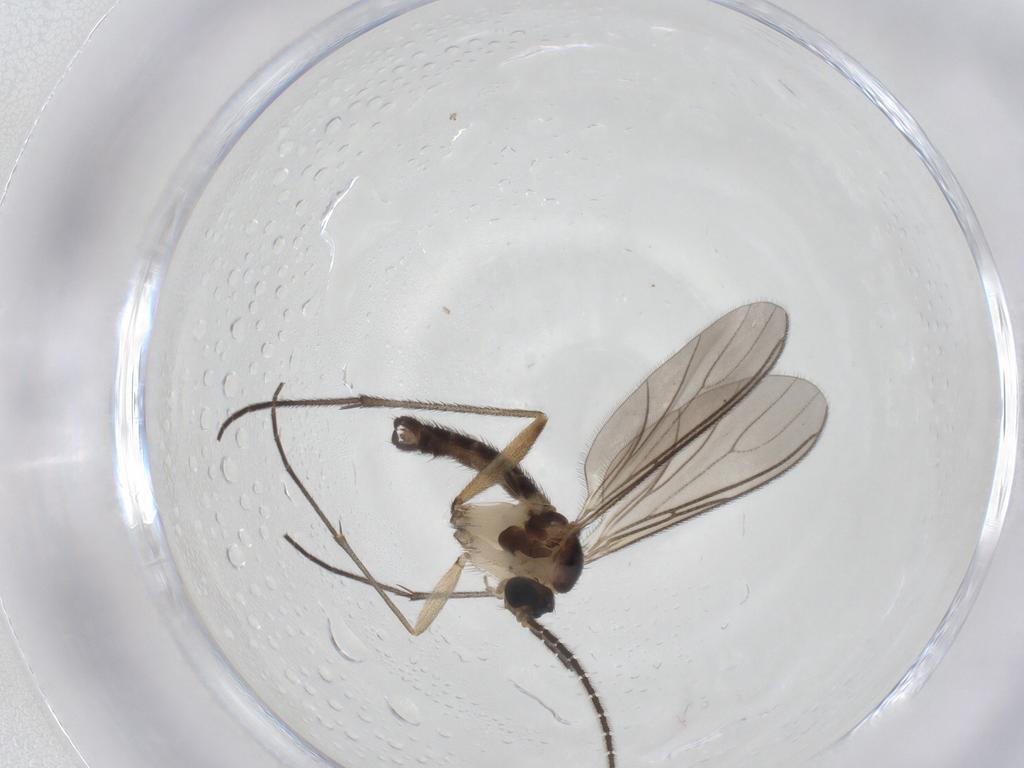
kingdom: Animalia
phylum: Arthropoda
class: Insecta
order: Diptera
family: Sciaridae
